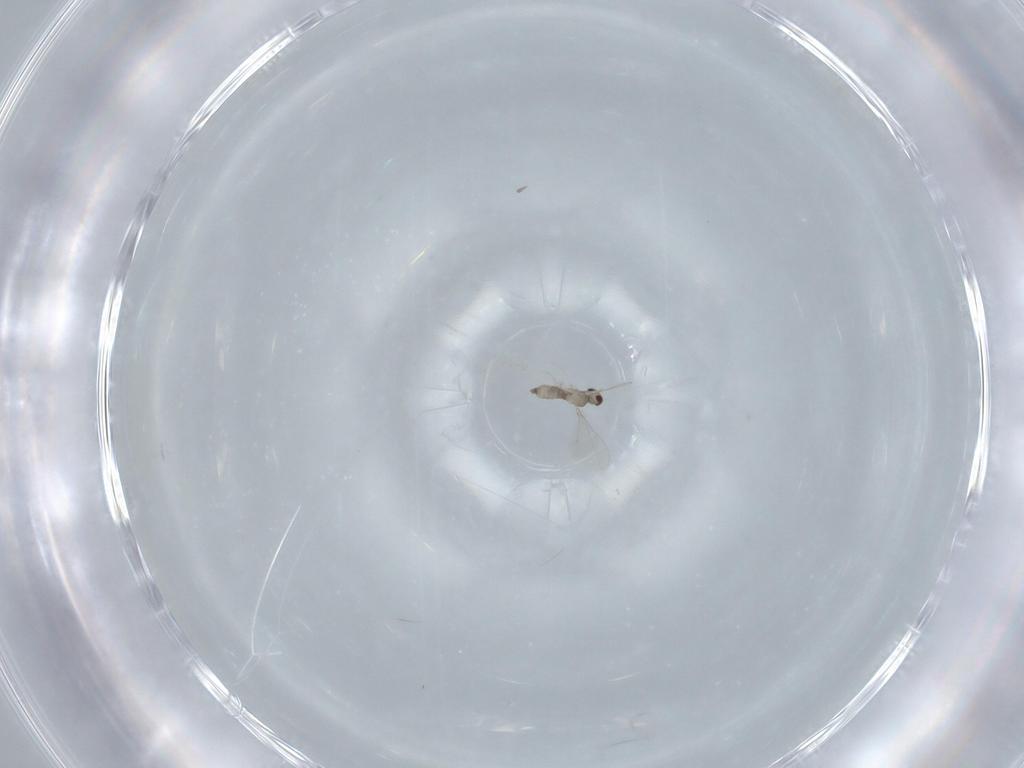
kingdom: Animalia
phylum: Arthropoda
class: Insecta
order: Diptera
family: Cecidomyiidae
